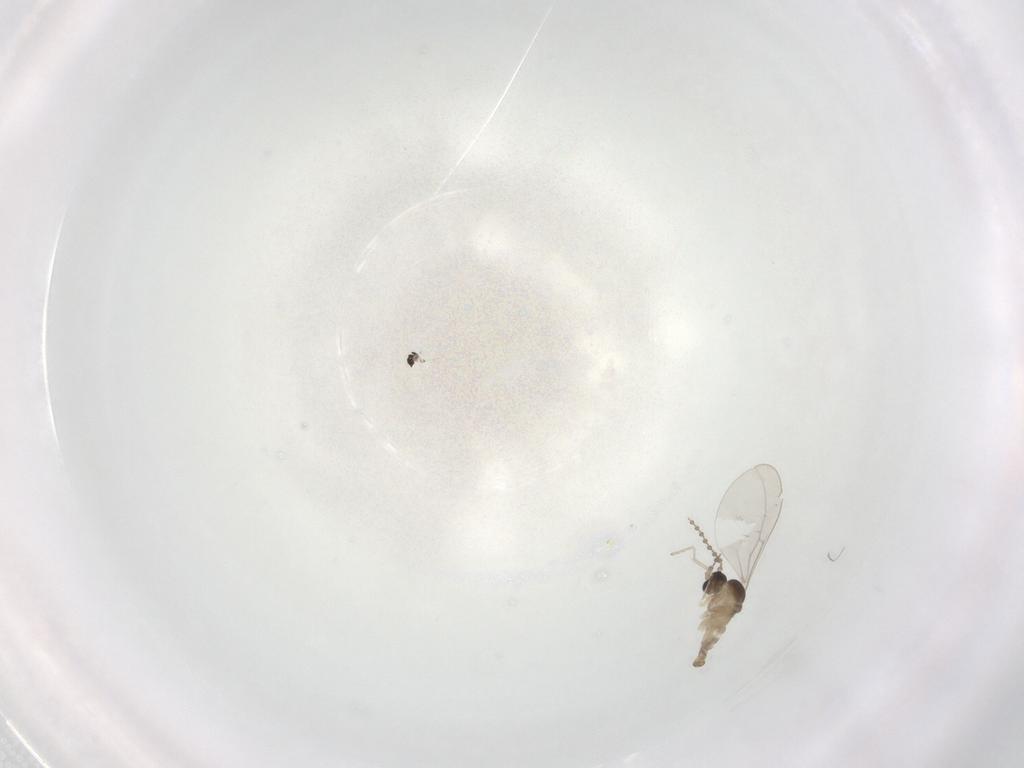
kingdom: Animalia
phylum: Arthropoda
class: Insecta
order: Diptera
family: Cecidomyiidae
